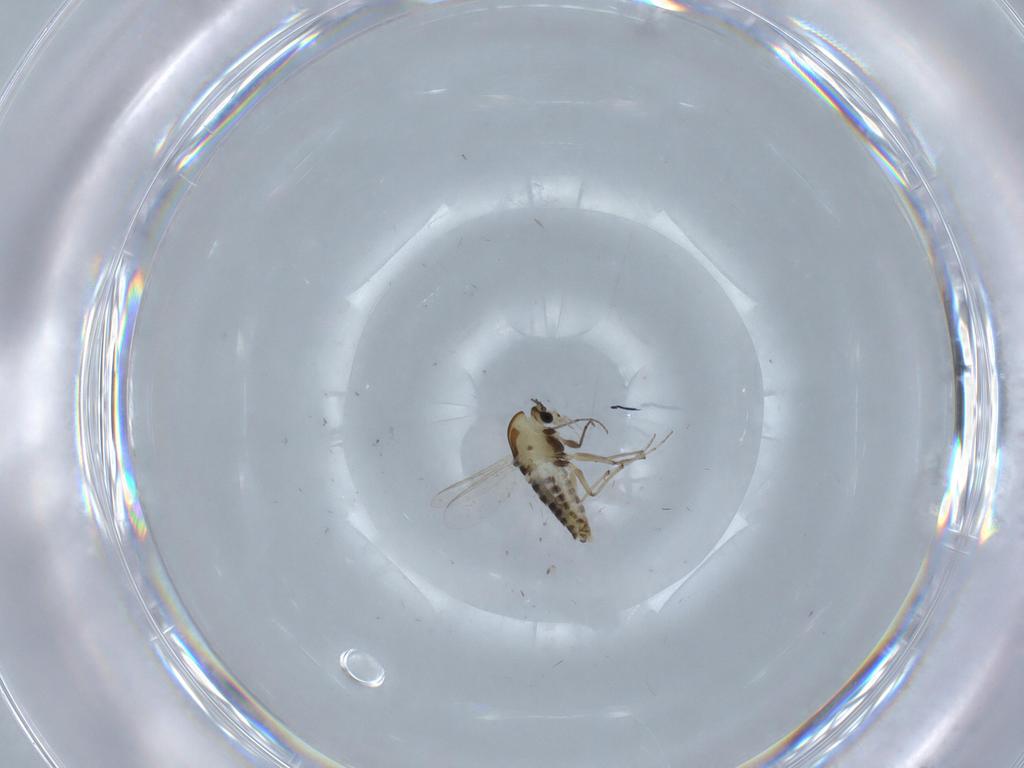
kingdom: Animalia
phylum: Arthropoda
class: Insecta
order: Diptera
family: Chironomidae
